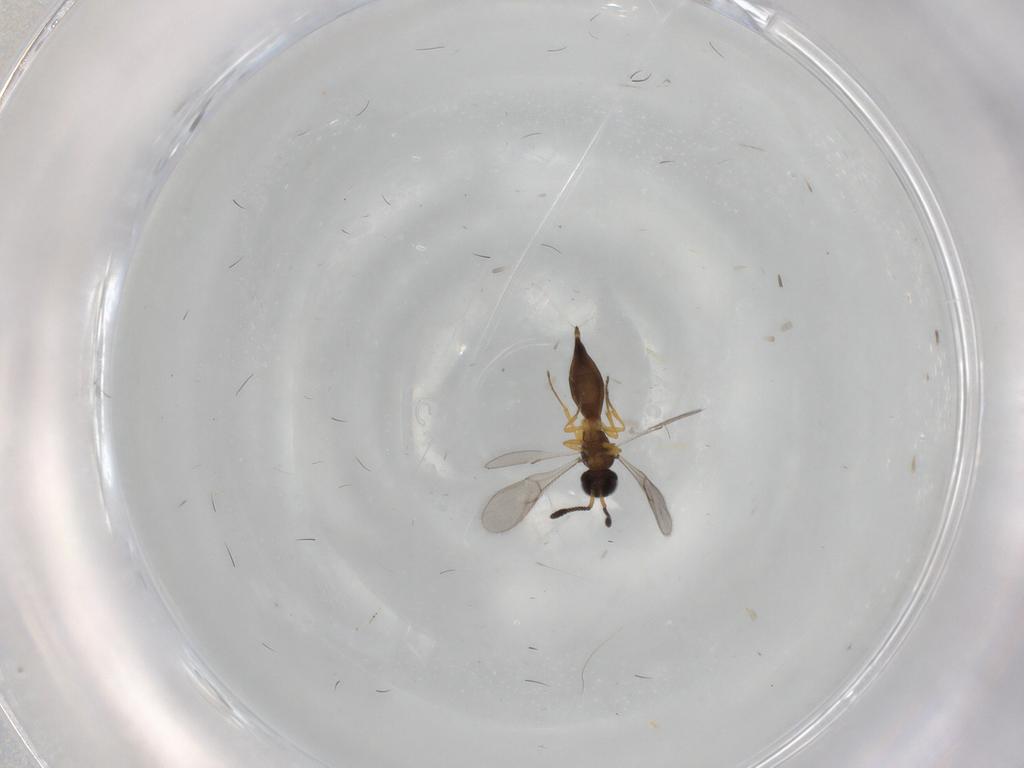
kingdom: Animalia
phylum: Arthropoda
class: Insecta
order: Hymenoptera
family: Scelionidae
